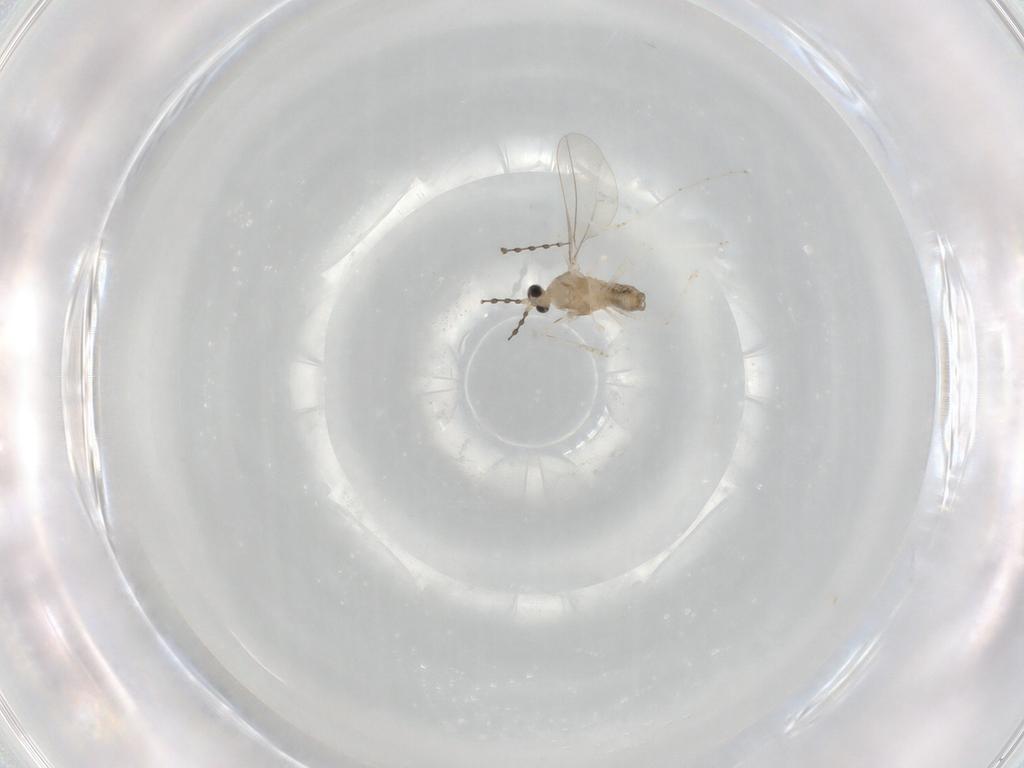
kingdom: Animalia
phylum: Arthropoda
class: Insecta
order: Diptera
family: Cecidomyiidae
